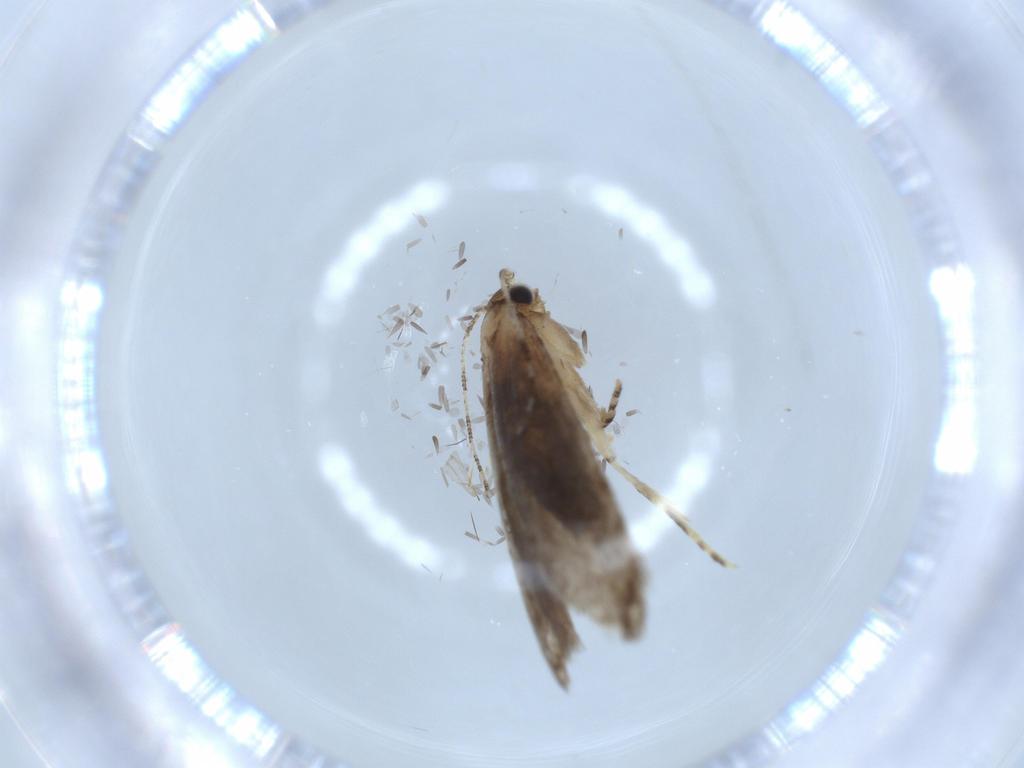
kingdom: Animalia
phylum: Arthropoda
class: Insecta
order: Lepidoptera
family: Tineidae
